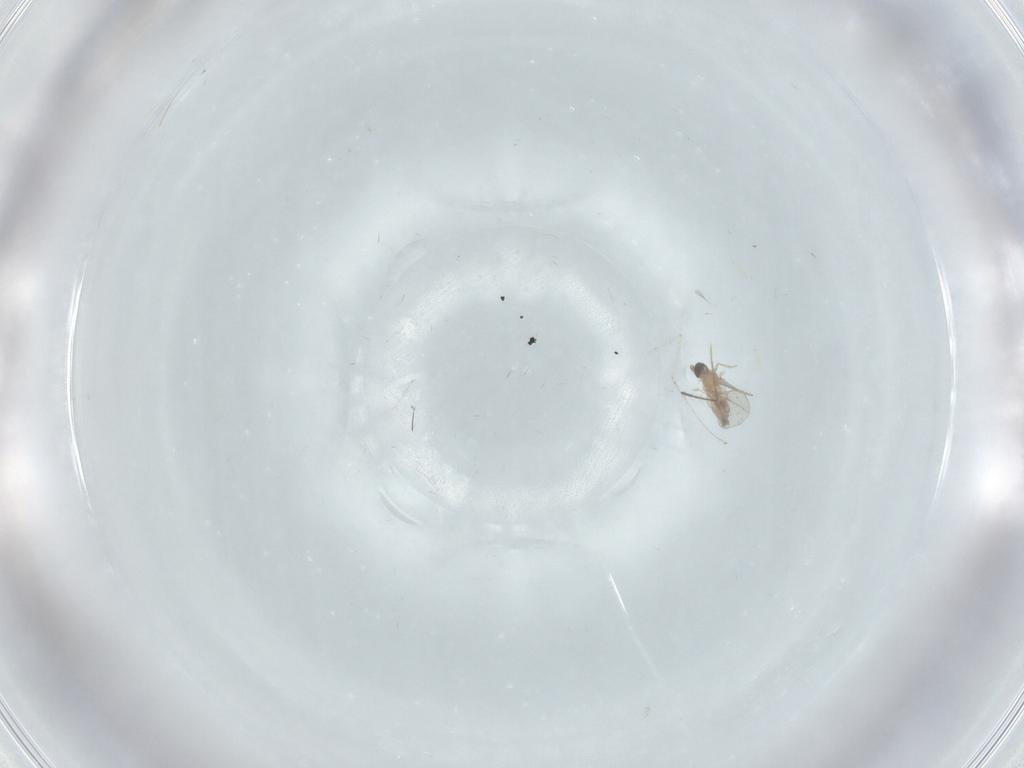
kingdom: Animalia
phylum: Arthropoda
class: Insecta
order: Diptera
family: Cecidomyiidae
